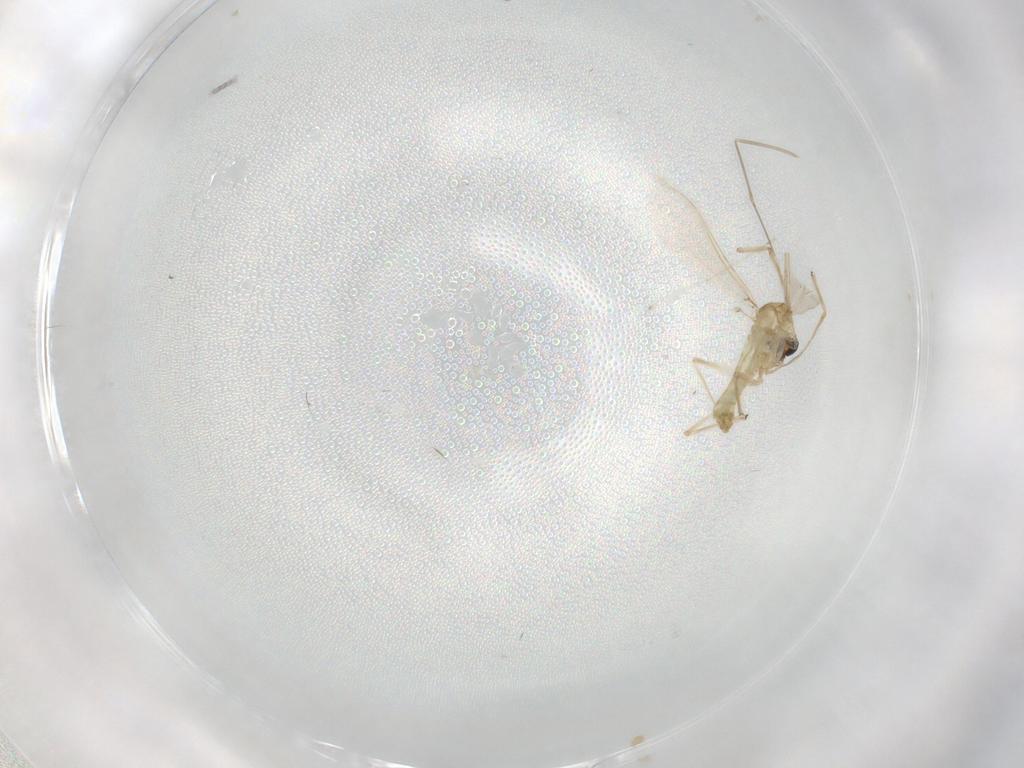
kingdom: Animalia
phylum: Arthropoda
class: Insecta
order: Diptera
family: Chironomidae
